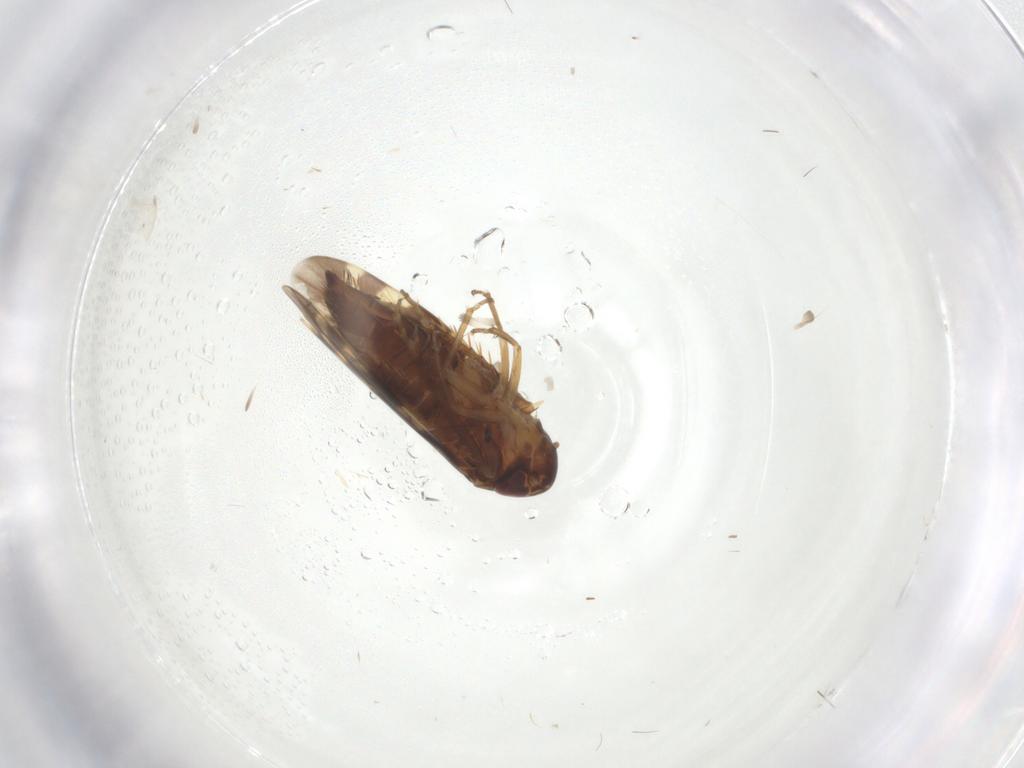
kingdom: Animalia
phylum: Arthropoda
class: Insecta
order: Hemiptera
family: Cicadellidae
